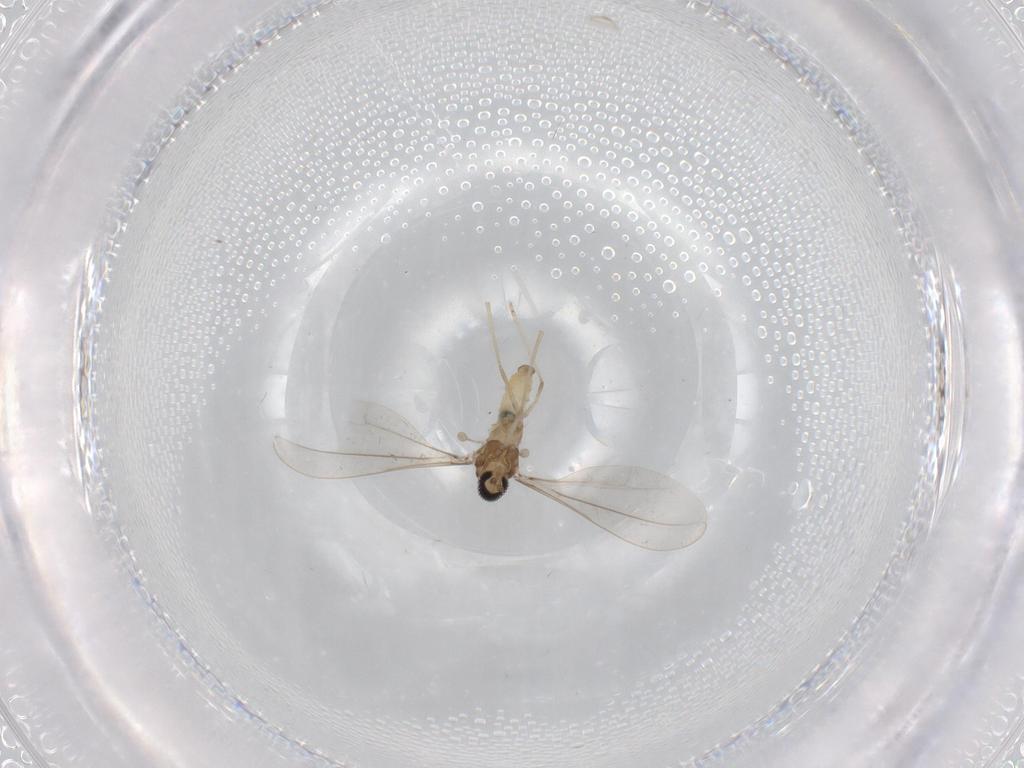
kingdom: Animalia
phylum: Arthropoda
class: Insecta
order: Diptera
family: Cecidomyiidae
